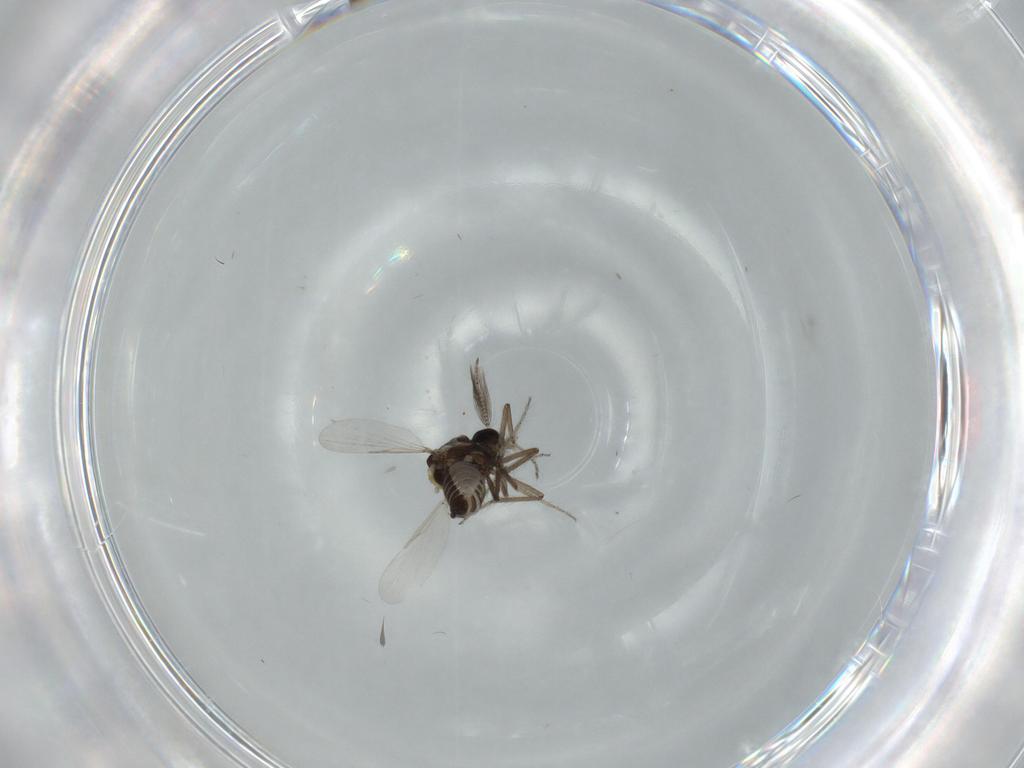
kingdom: Animalia
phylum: Arthropoda
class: Insecta
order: Diptera
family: Ceratopogonidae
